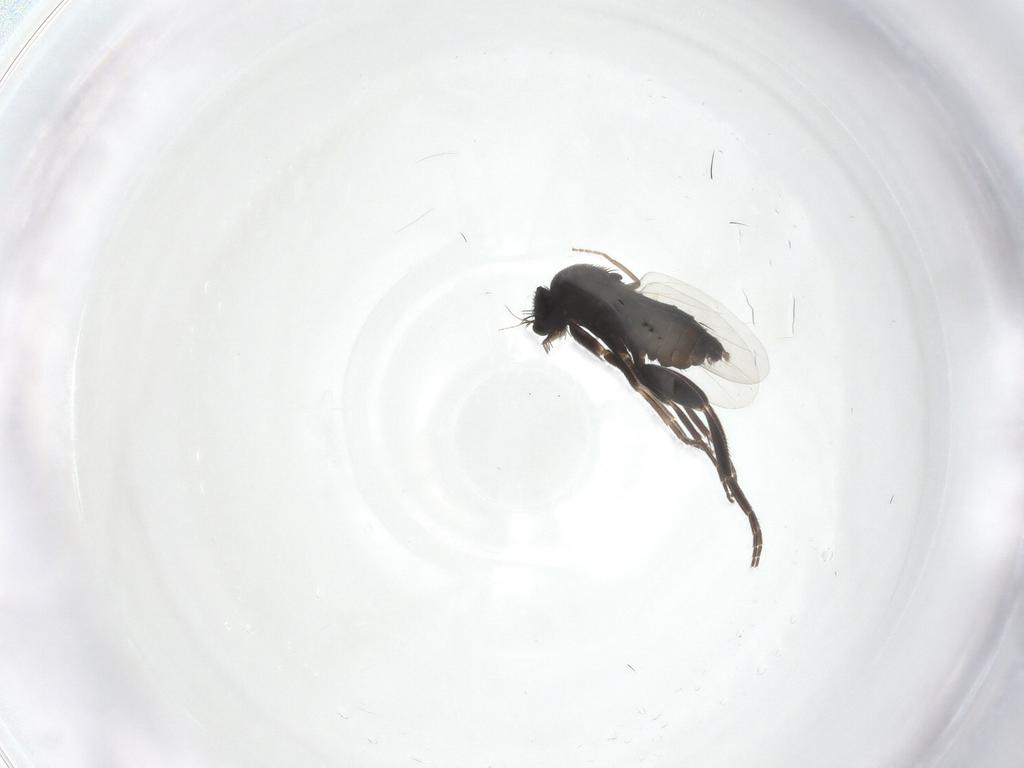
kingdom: Animalia
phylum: Arthropoda
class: Insecta
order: Diptera
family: Phoridae
